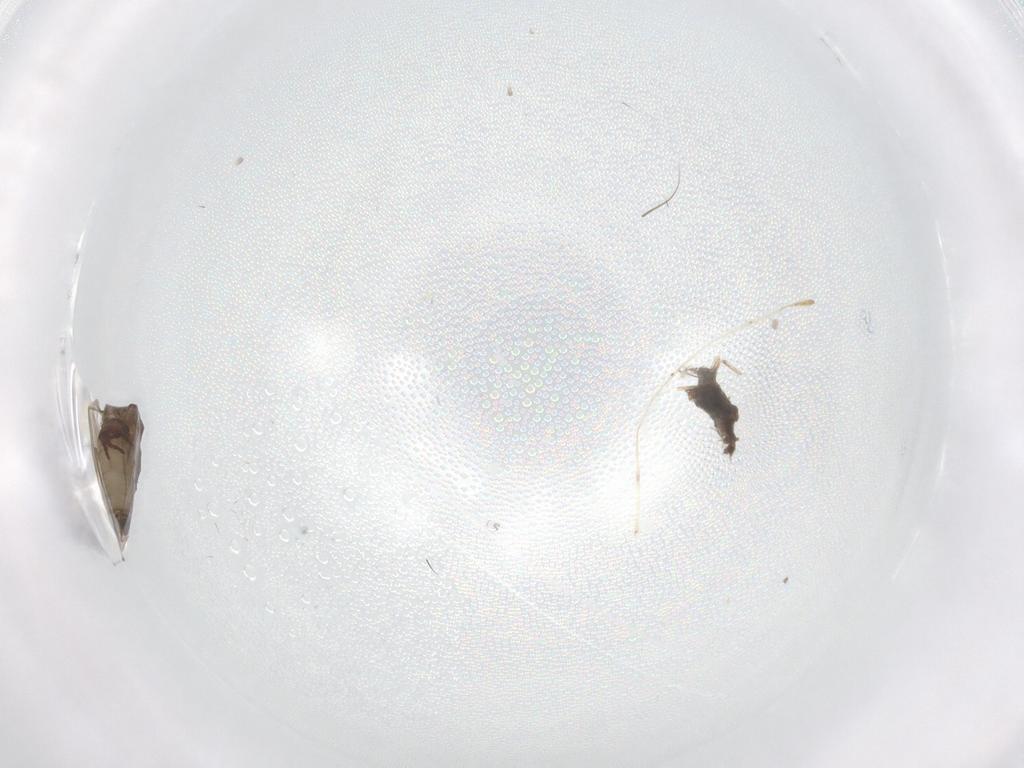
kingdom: Animalia
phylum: Arthropoda
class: Insecta
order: Diptera
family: Psychodidae
